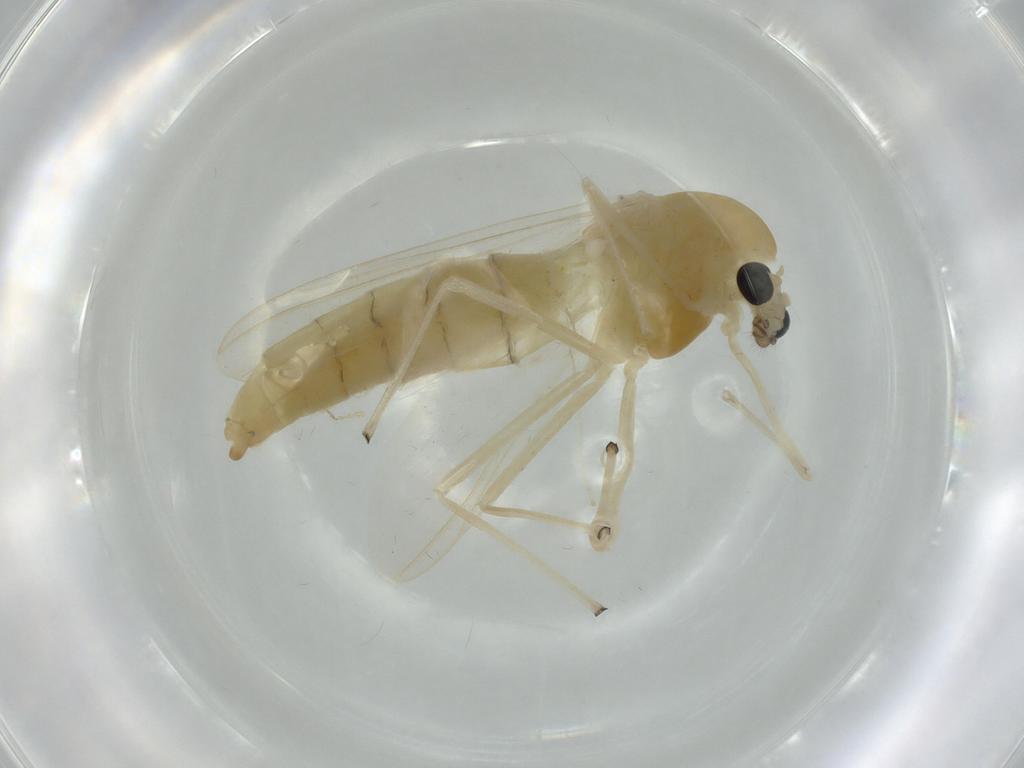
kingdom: Animalia
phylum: Arthropoda
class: Insecta
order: Diptera
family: Chironomidae
